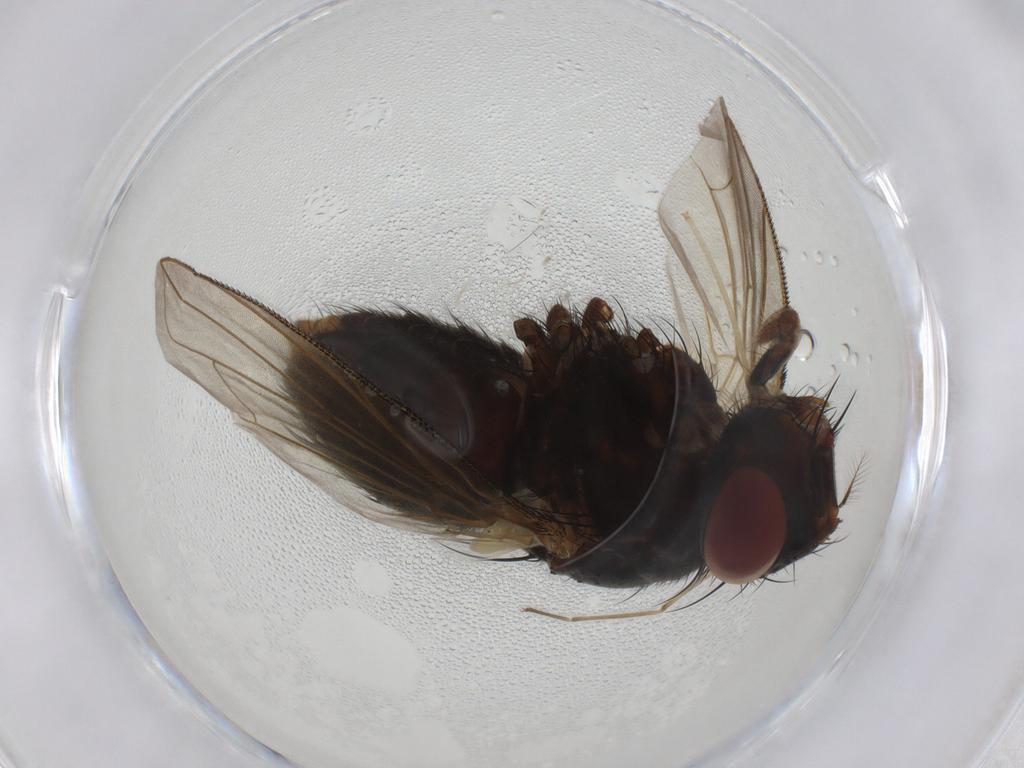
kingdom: Animalia
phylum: Arthropoda
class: Insecta
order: Diptera
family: Calliphoridae
